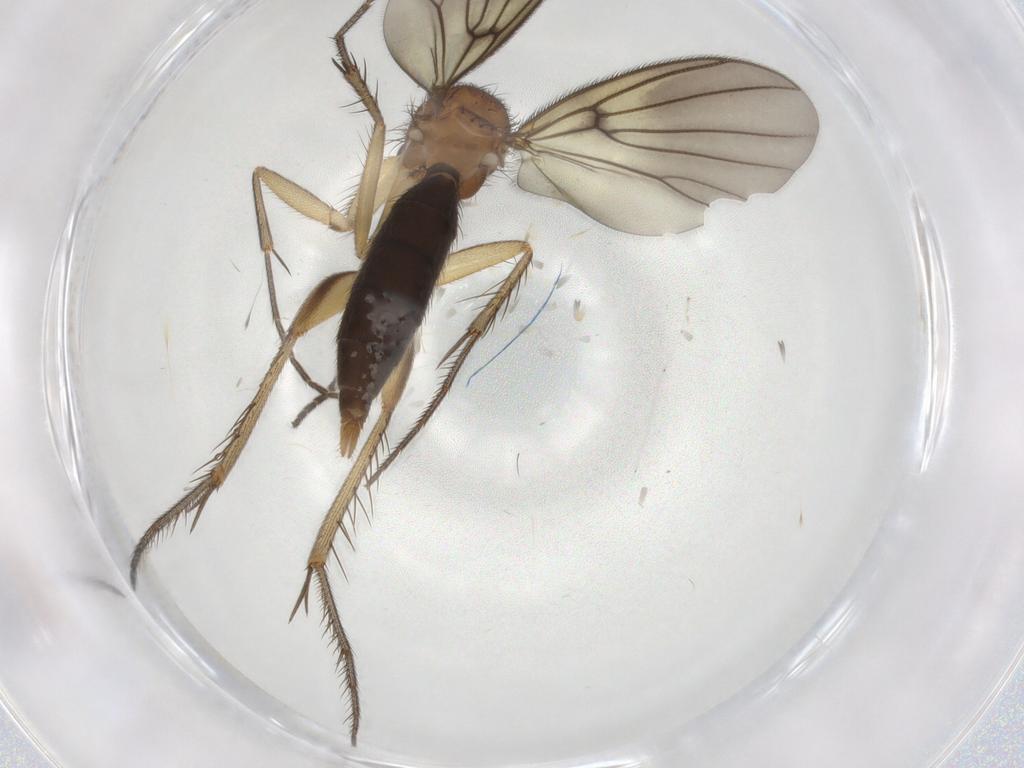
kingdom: Animalia
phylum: Arthropoda
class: Insecta
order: Diptera
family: Mycetophilidae
